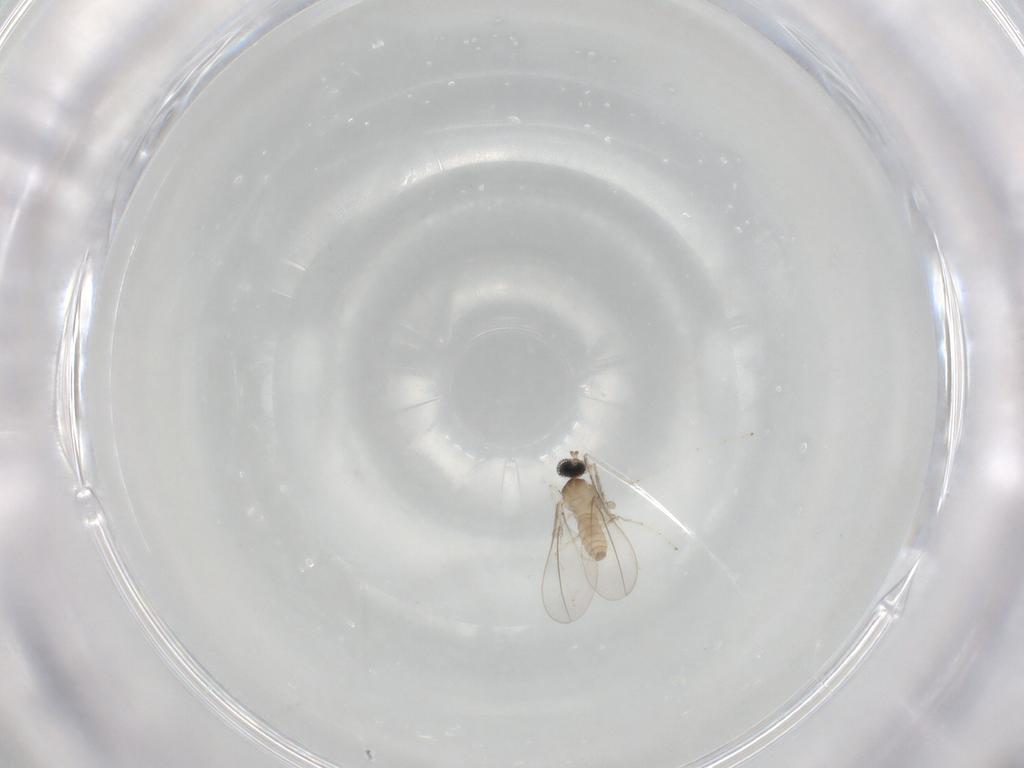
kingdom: Animalia
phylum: Arthropoda
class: Insecta
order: Diptera
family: Cecidomyiidae
